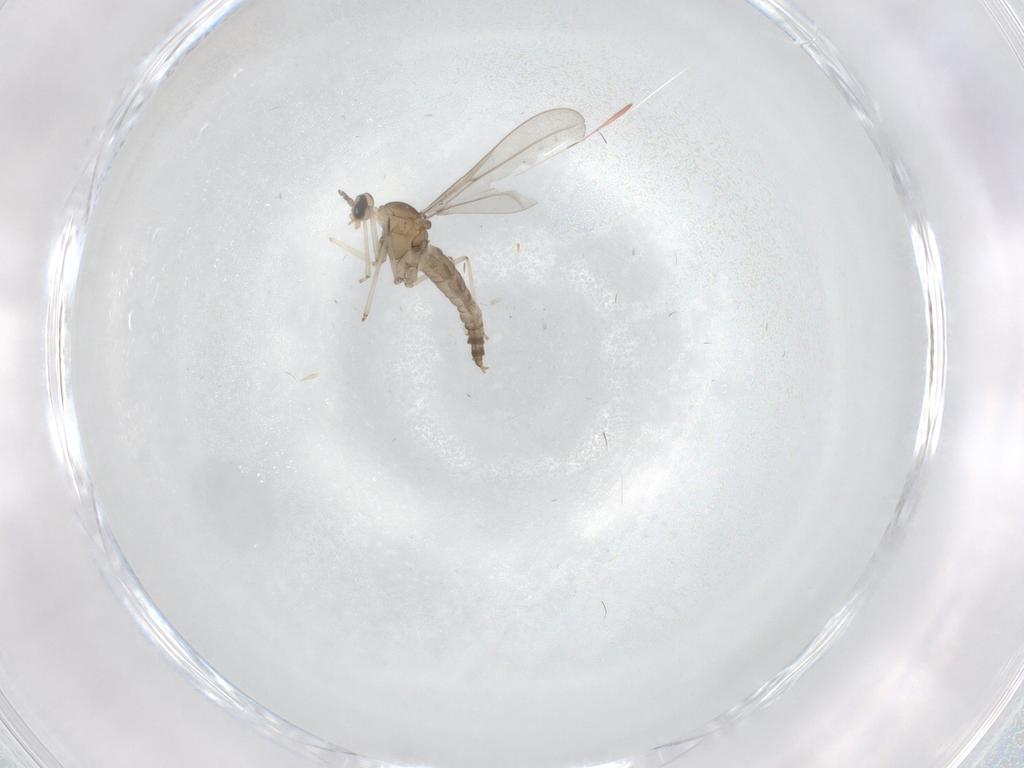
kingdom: Animalia
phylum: Arthropoda
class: Insecta
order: Diptera
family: Cecidomyiidae
